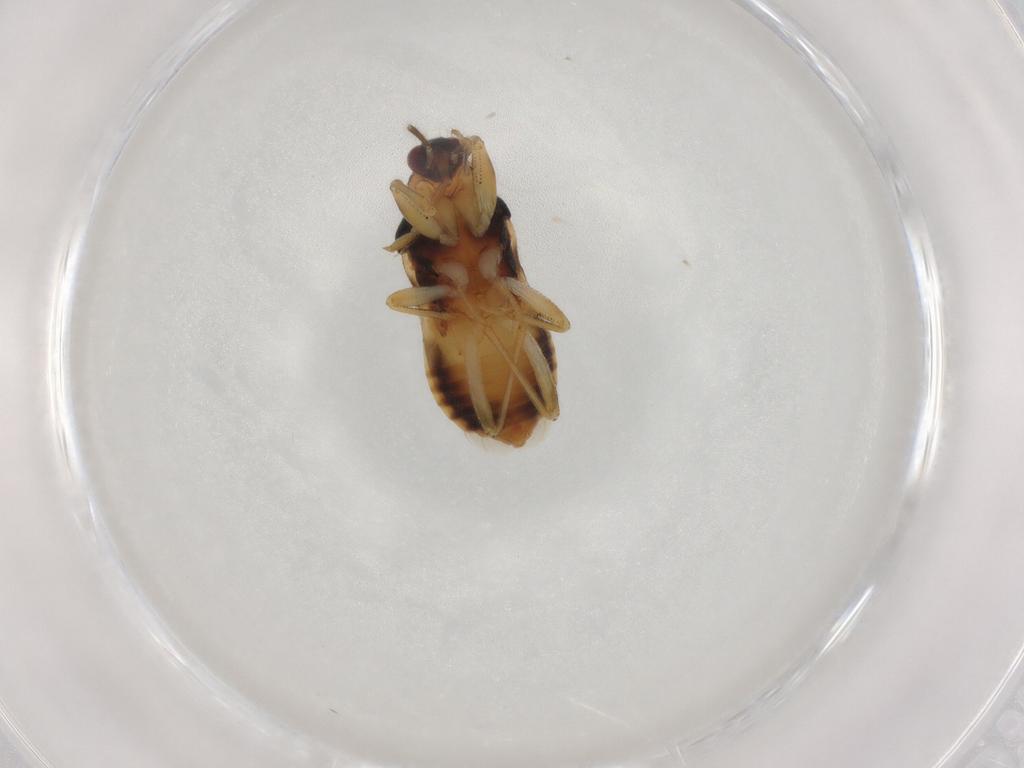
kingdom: Animalia
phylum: Arthropoda
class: Insecta
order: Hemiptera
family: Nabidae
